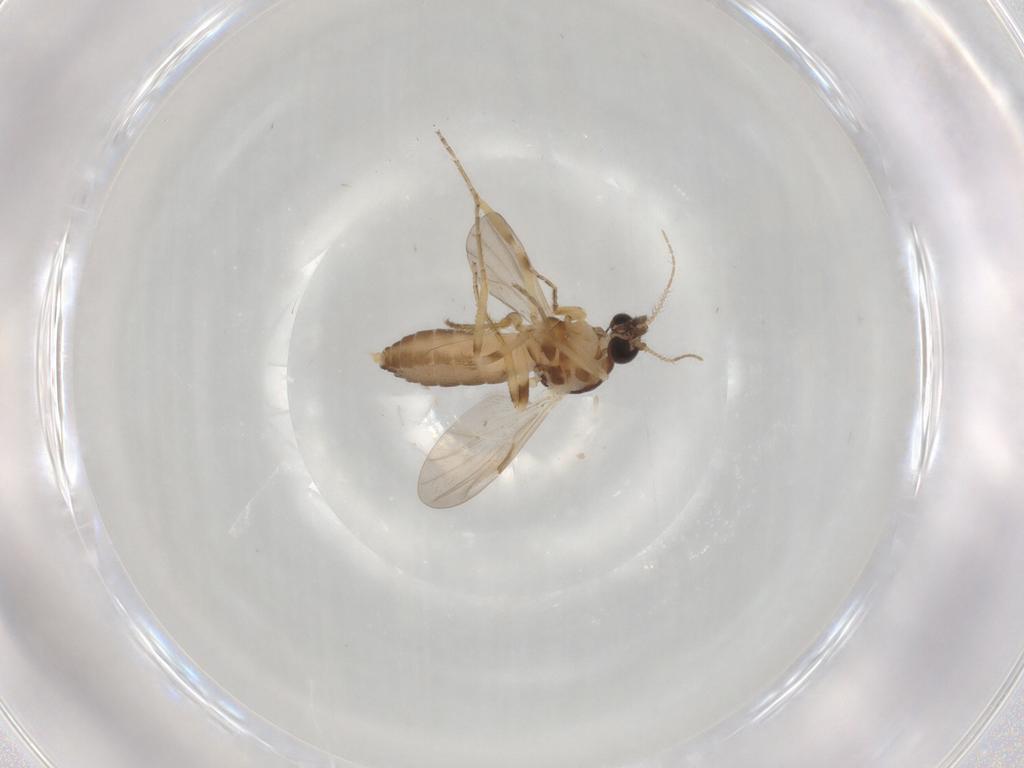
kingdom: Animalia
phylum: Arthropoda
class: Insecta
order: Diptera
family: Ceratopogonidae
